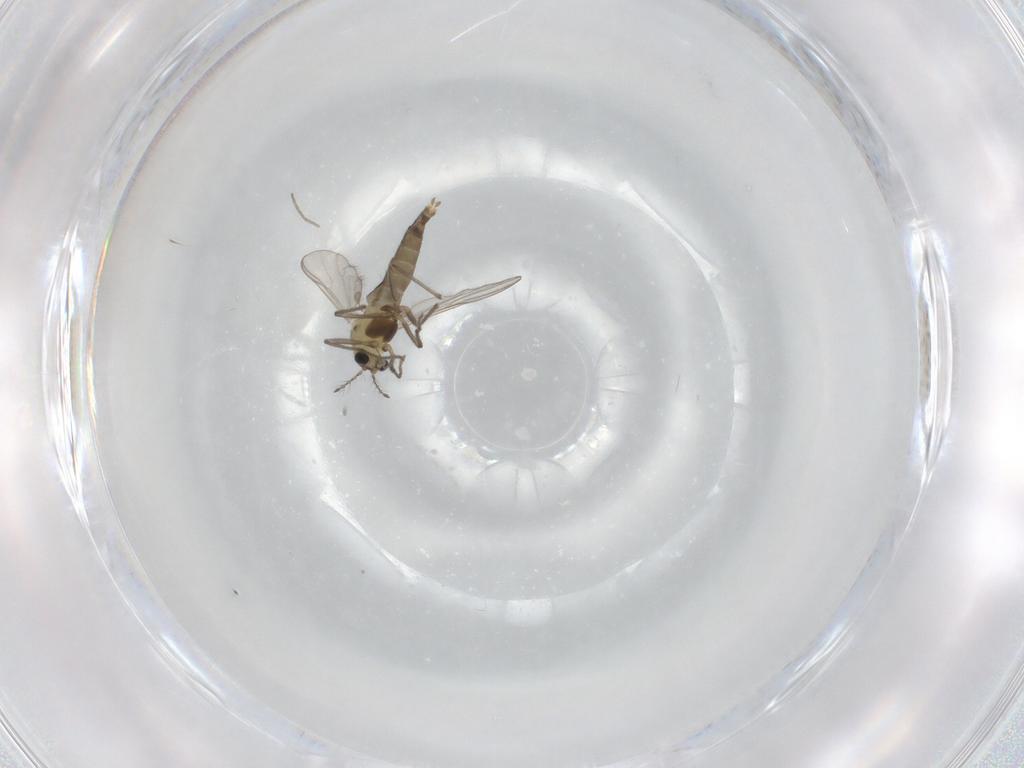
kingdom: Animalia
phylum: Arthropoda
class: Insecta
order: Diptera
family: Chironomidae
